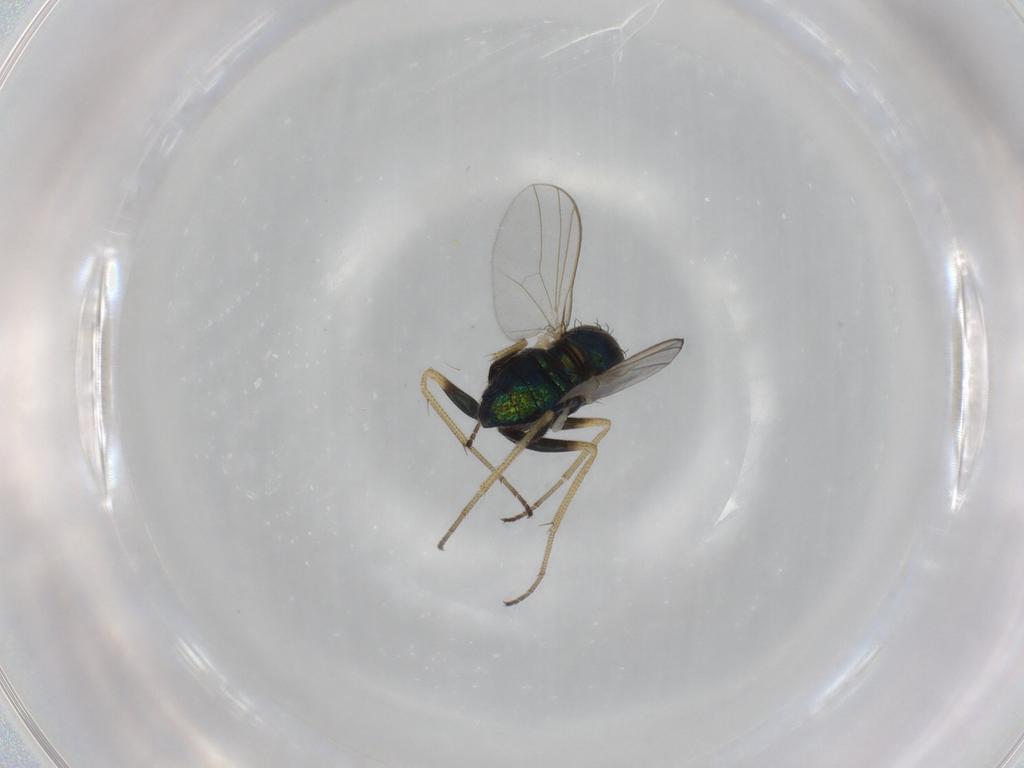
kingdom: Animalia
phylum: Arthropoda
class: Insecta
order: Diptera
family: Dolichopodidae
